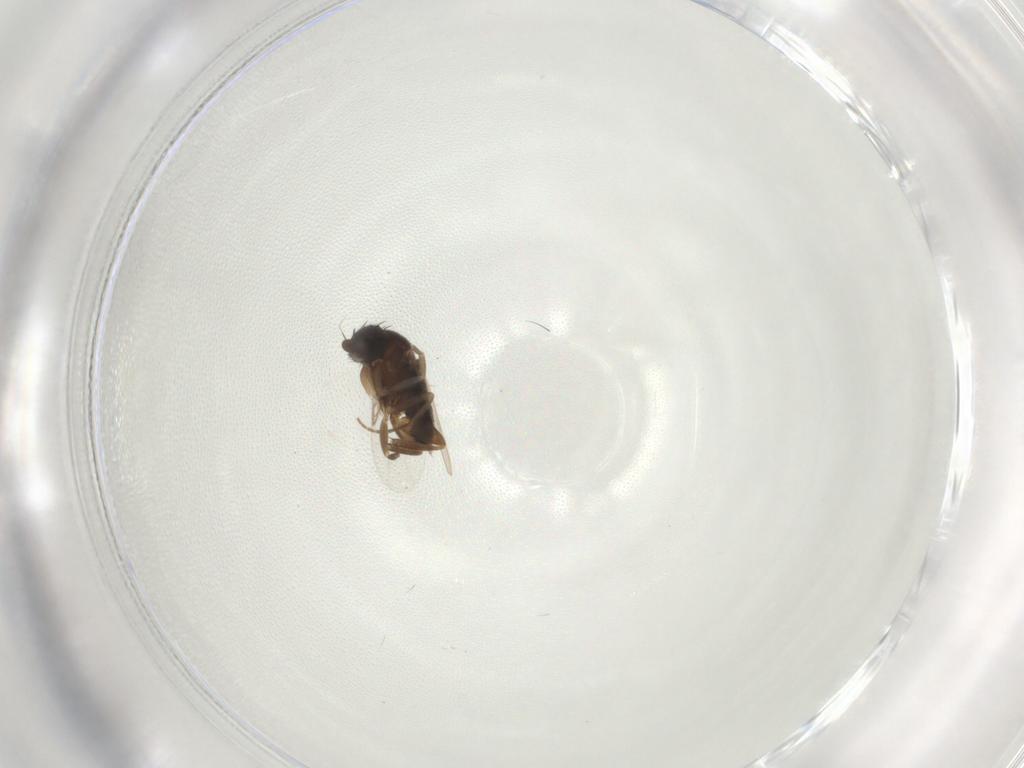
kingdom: Animalia
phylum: Arthropoda
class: Insecta
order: Diptera
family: Phoridae
